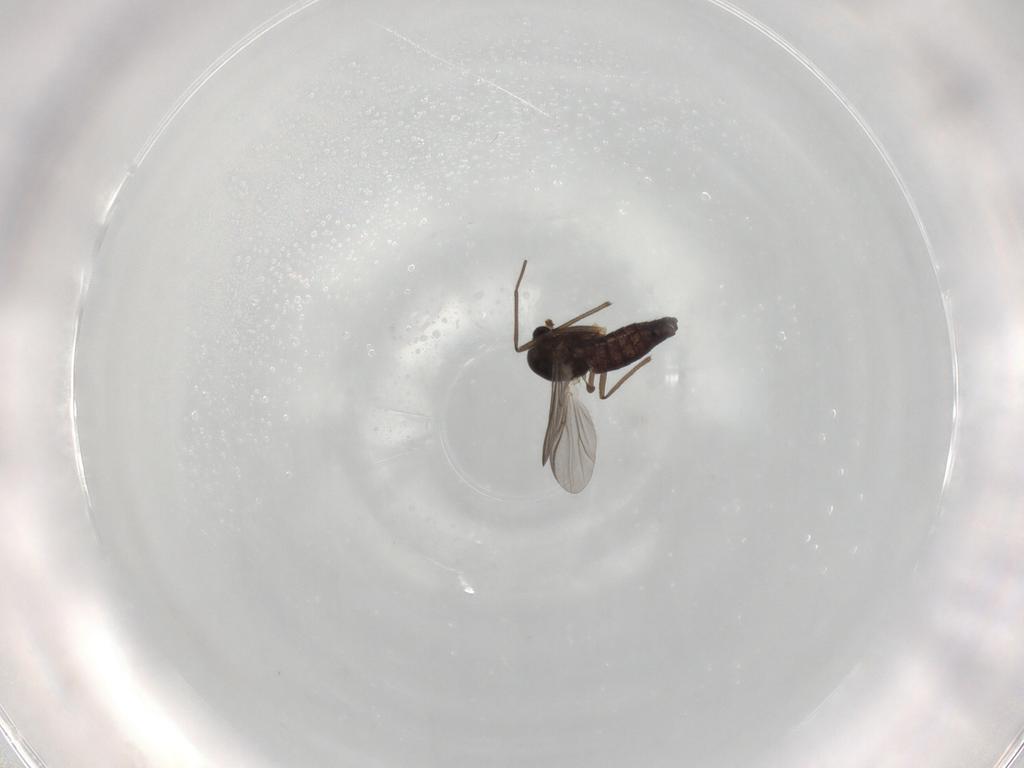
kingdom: Animalia
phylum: Arthropoda
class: Insecta
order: Diptera
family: Chironomidae
